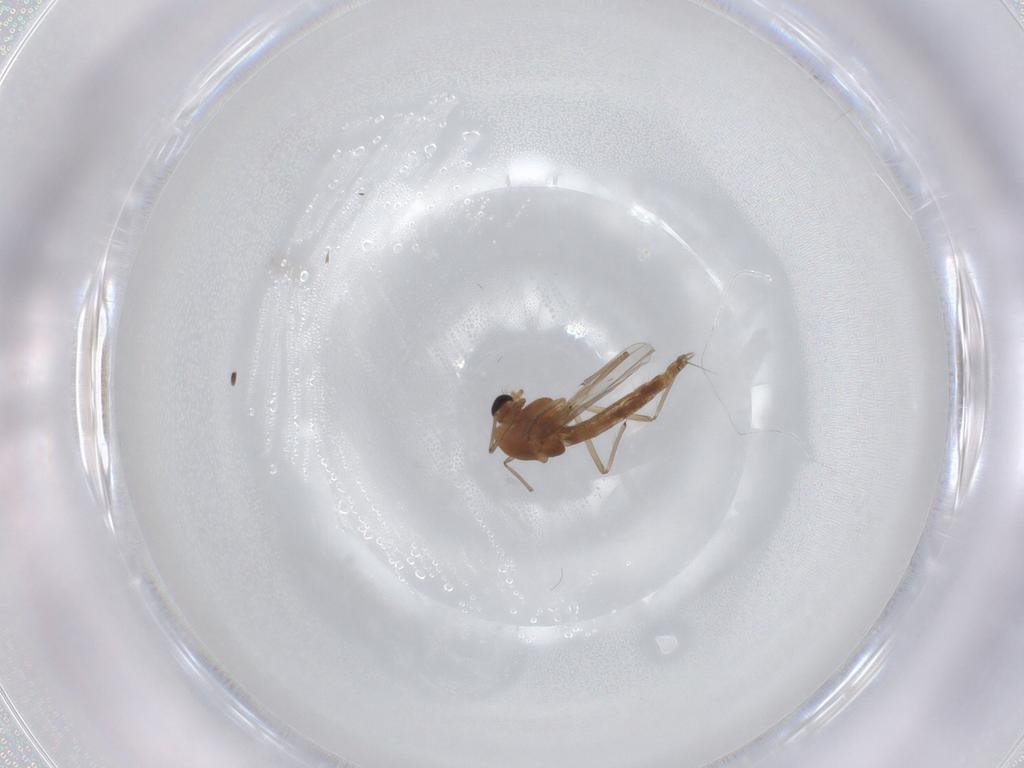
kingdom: Animalia
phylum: Arthropoda
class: Insecta
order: Diptera
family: Chironomidae
